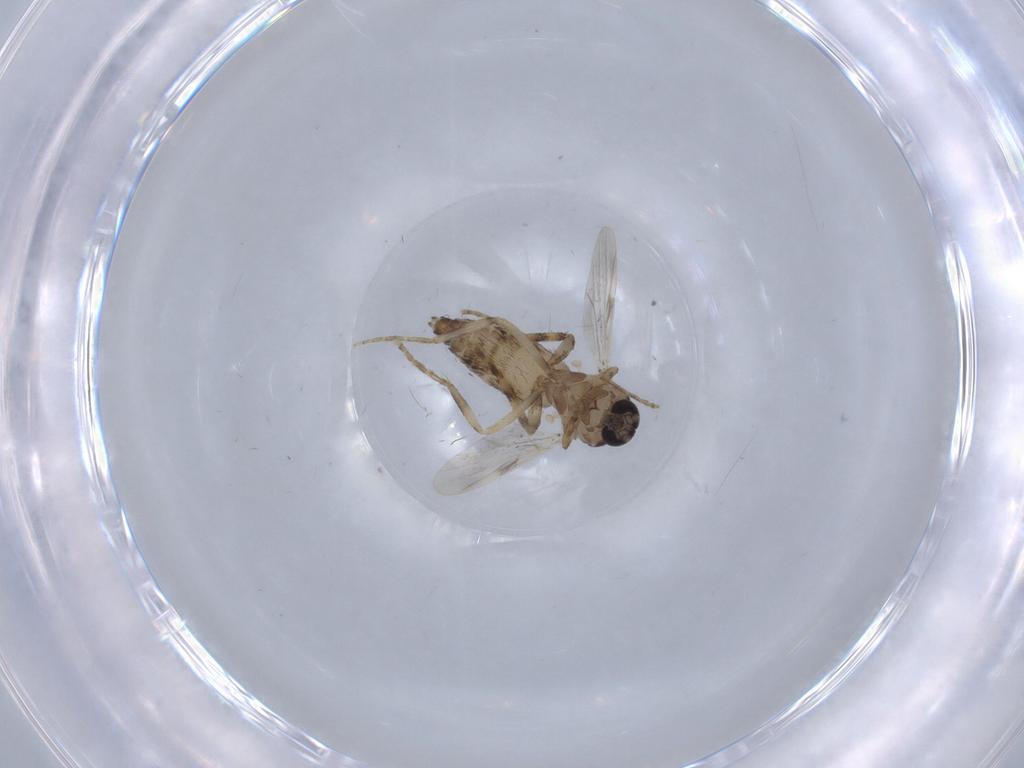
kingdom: Animalia
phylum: Arthropoda
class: Insecta
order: Diptera
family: Ceratopogonidae
